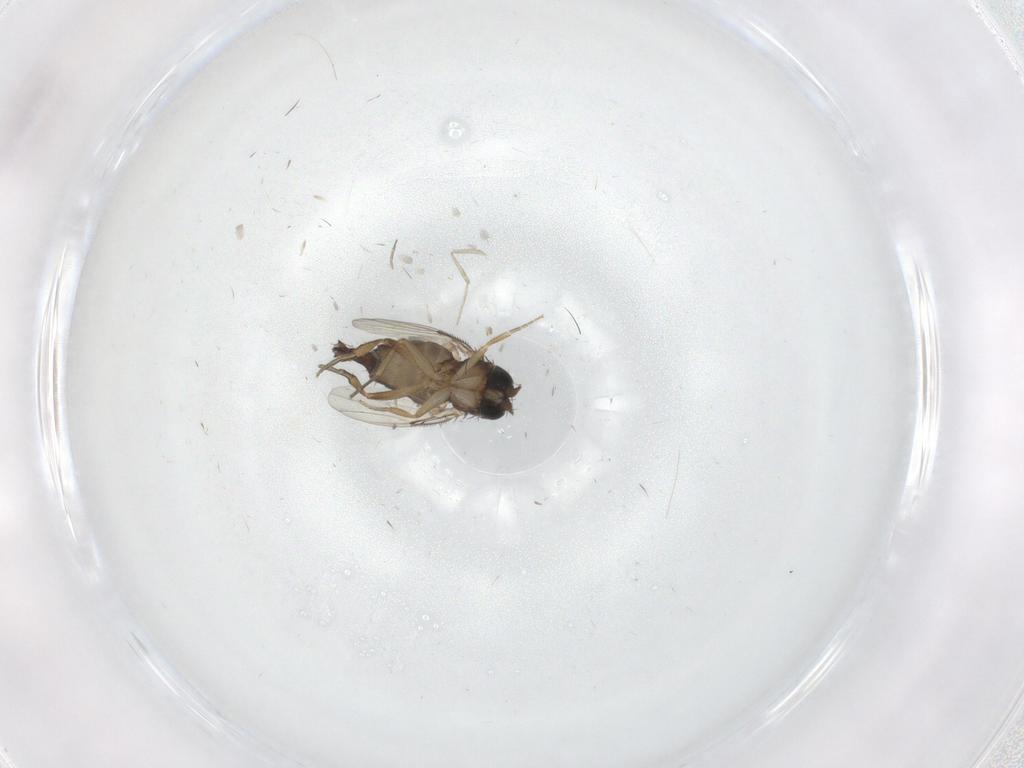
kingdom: Animalia
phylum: Arthropoda
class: Insecta
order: Diptera
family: Phoridae
